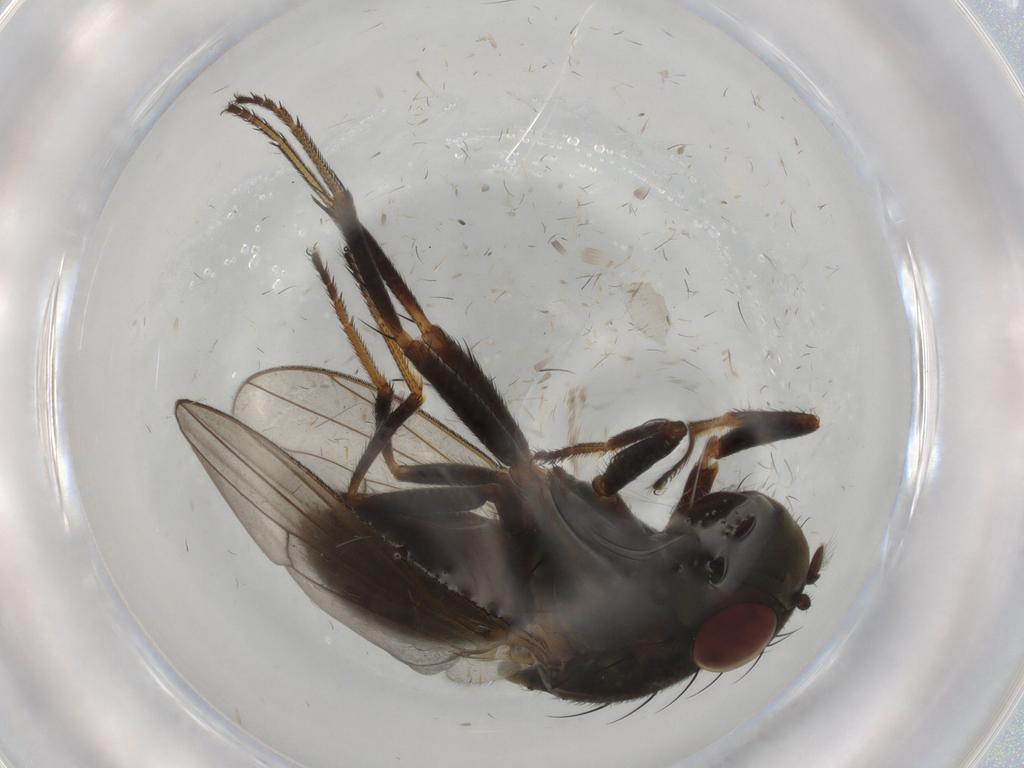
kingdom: Animalia
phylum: Arthropoda
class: Insecta
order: Diptera
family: Ephydridae
